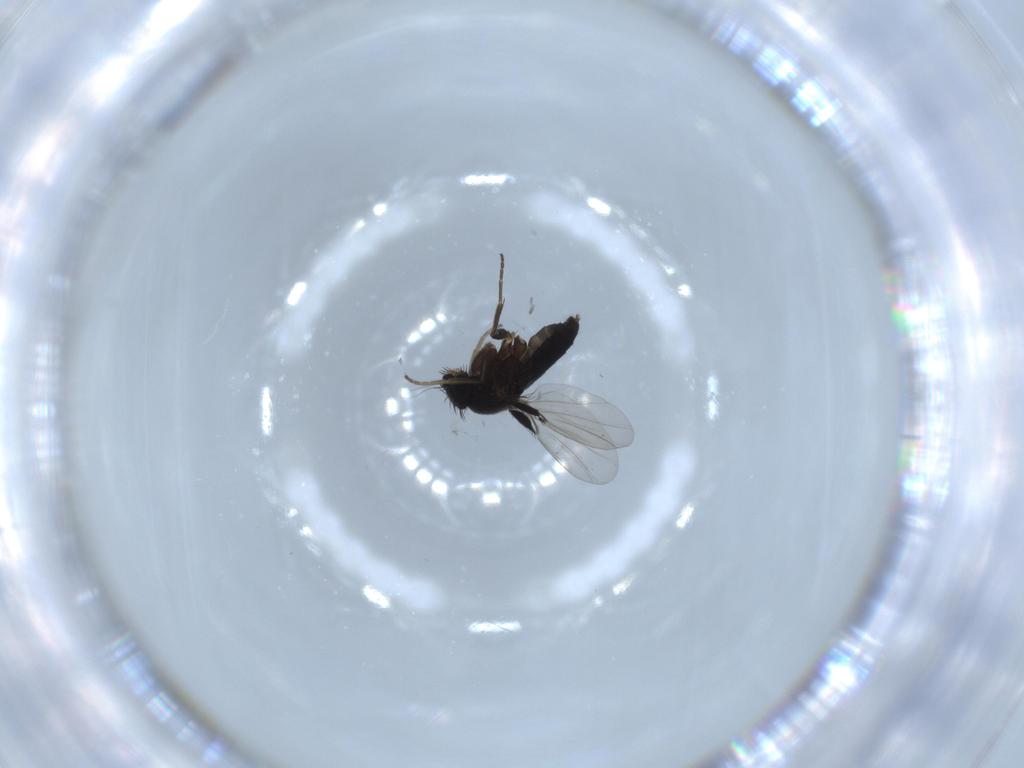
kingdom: Animalia
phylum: Arthropoda
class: Insecta
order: Diptera
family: Phoridae
